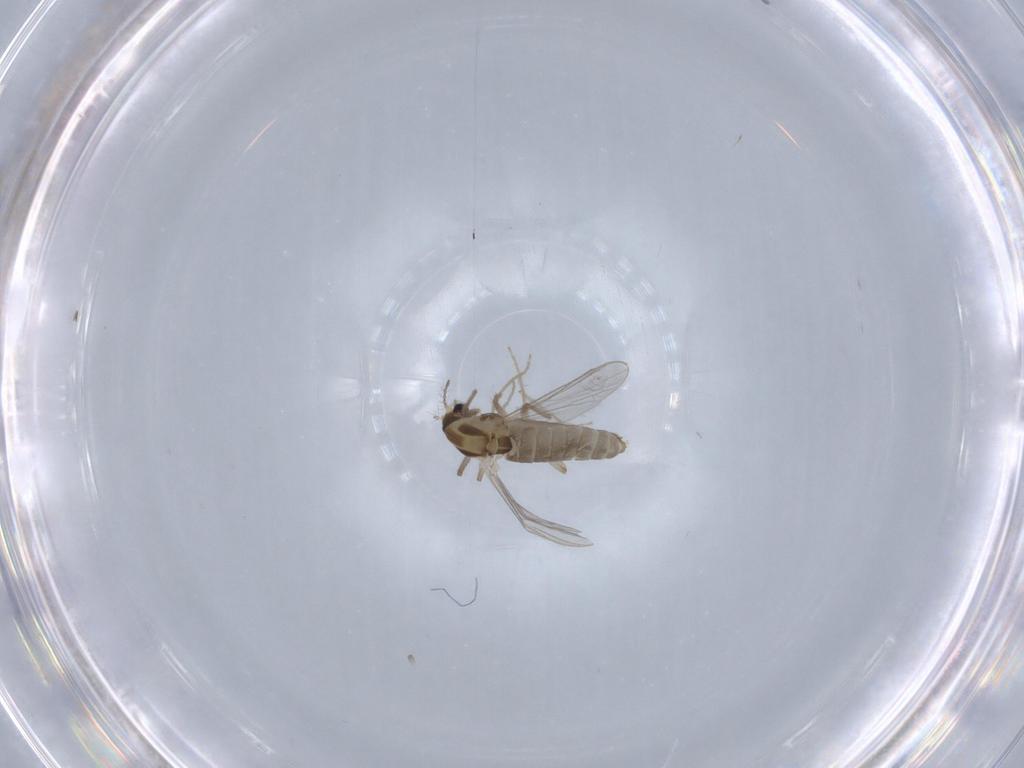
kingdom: Animalia
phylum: Arthropoda
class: Insecta
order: Diptera
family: Chironomidae
